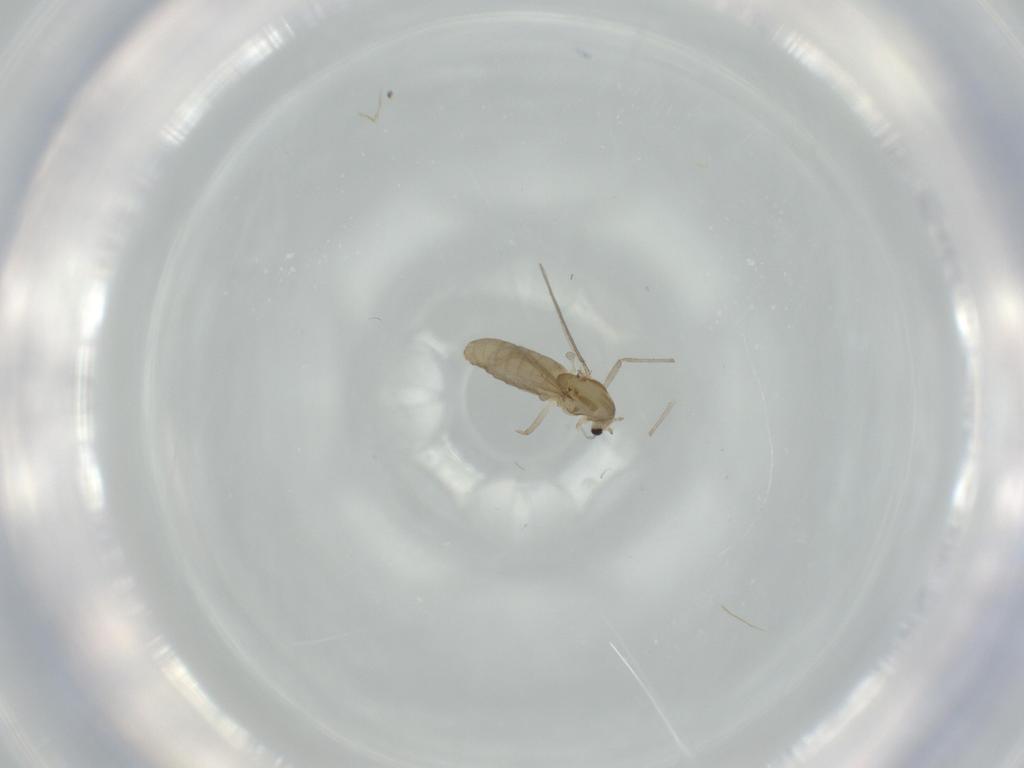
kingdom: Animalia
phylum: Arthropoda
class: Insecta
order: Diptera
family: Chironomidae
